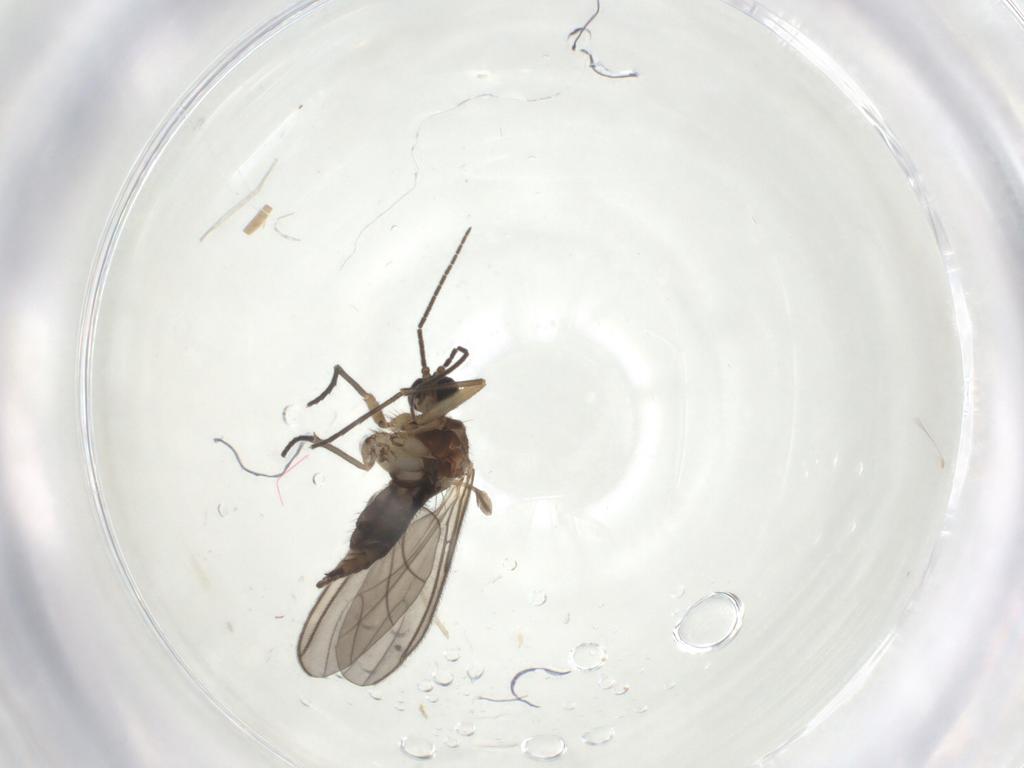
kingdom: Animalia
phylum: Arthropoda
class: Insecta
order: Diptera
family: Sciaridae
